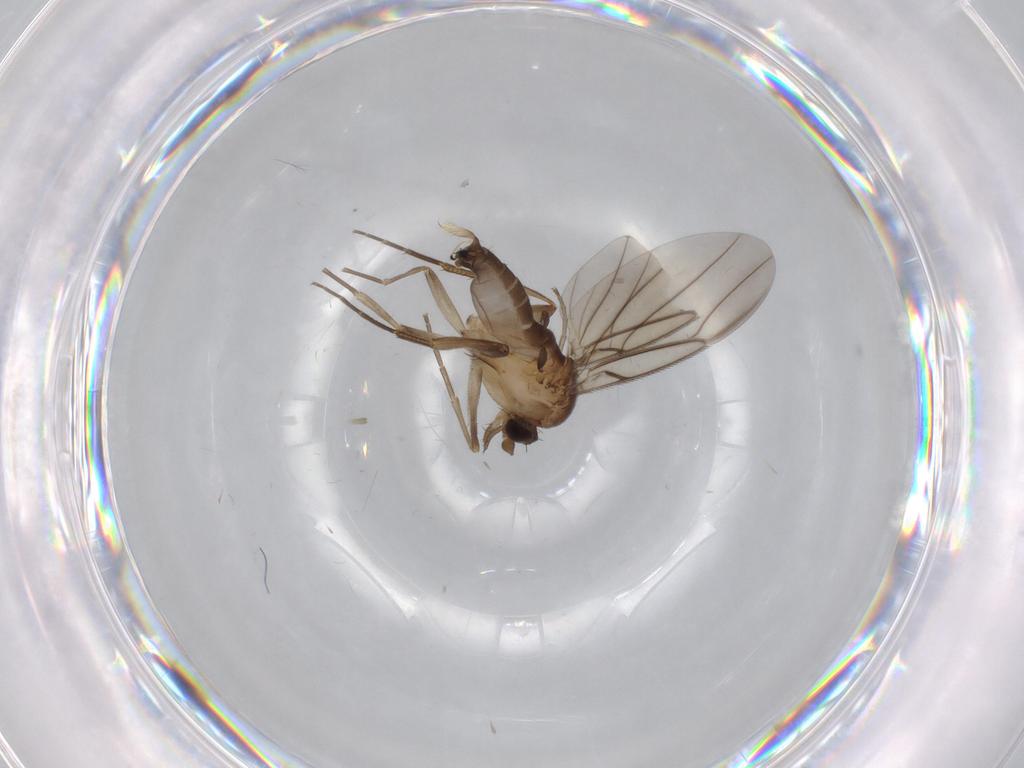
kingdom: Animalia
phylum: Arthropoda
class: Insecta
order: Diptera
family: Phoridae
